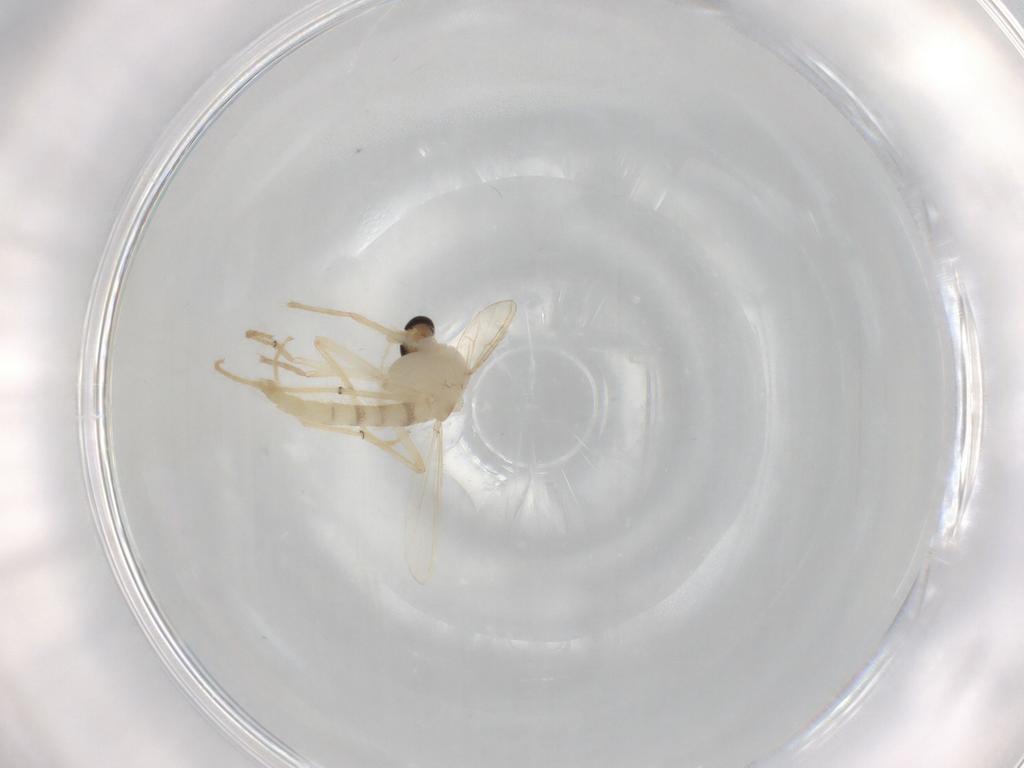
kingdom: Animalia
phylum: Arthropoda
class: Insecta
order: Diptera
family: Chironomidae
